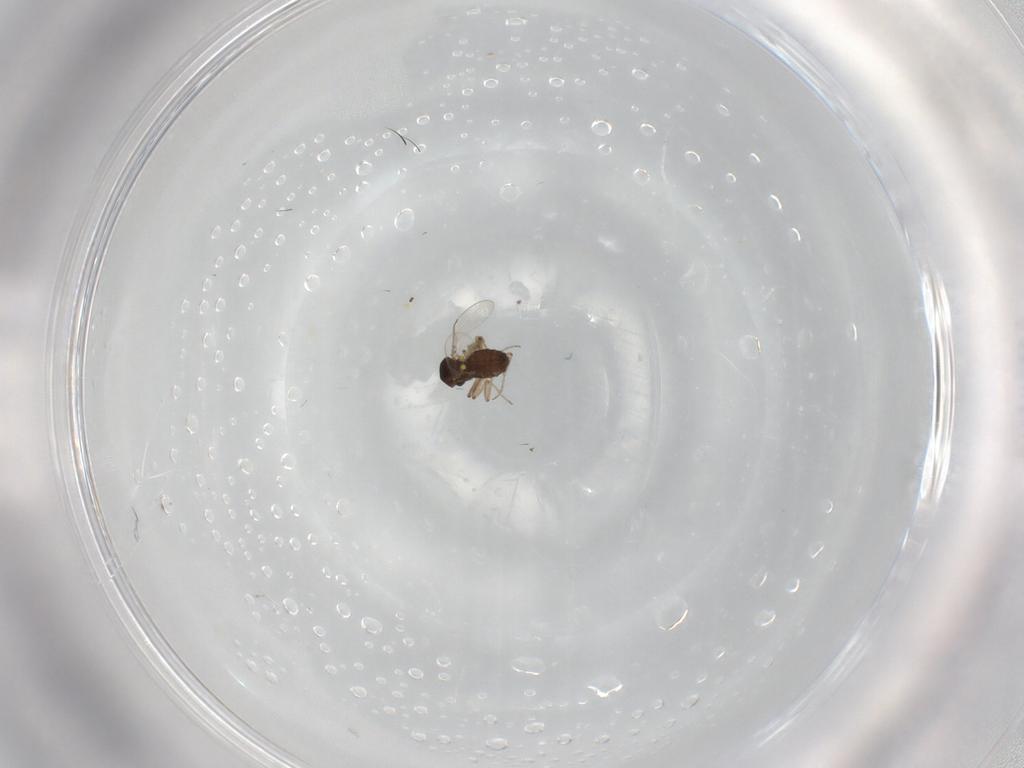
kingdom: Animalia
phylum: Arthropoda
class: Insecta
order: Diptera
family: Ceratopogonidae
